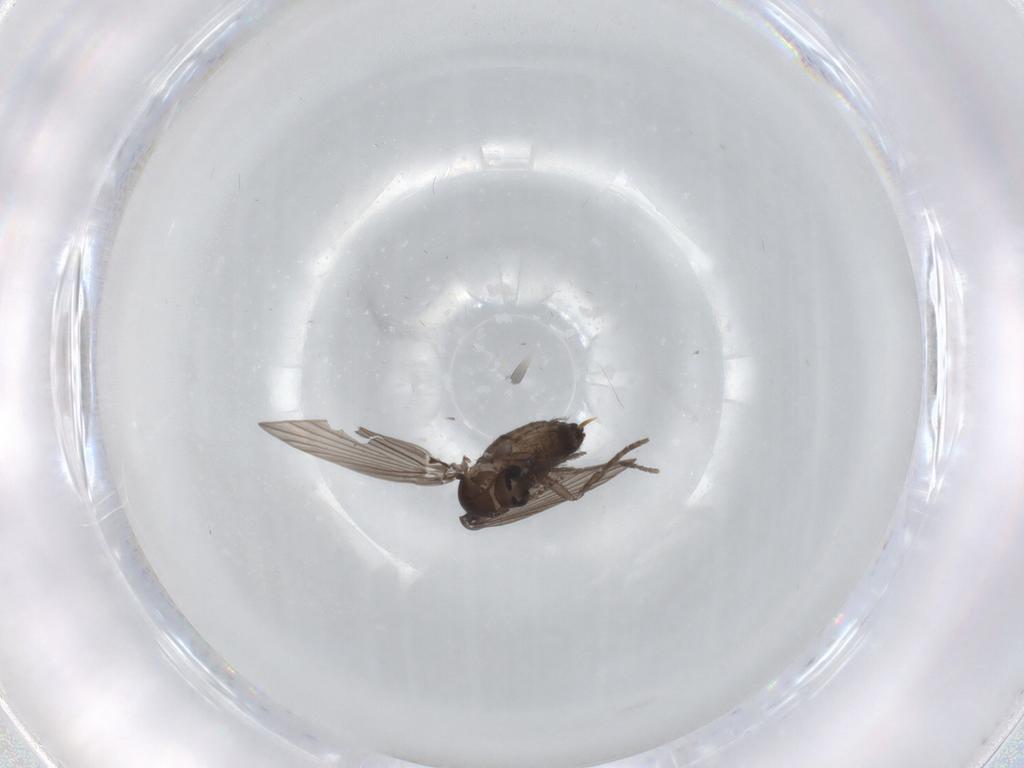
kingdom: Animalia
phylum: Arthropoda
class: Insecta
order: Diptera
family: Psychodidae
